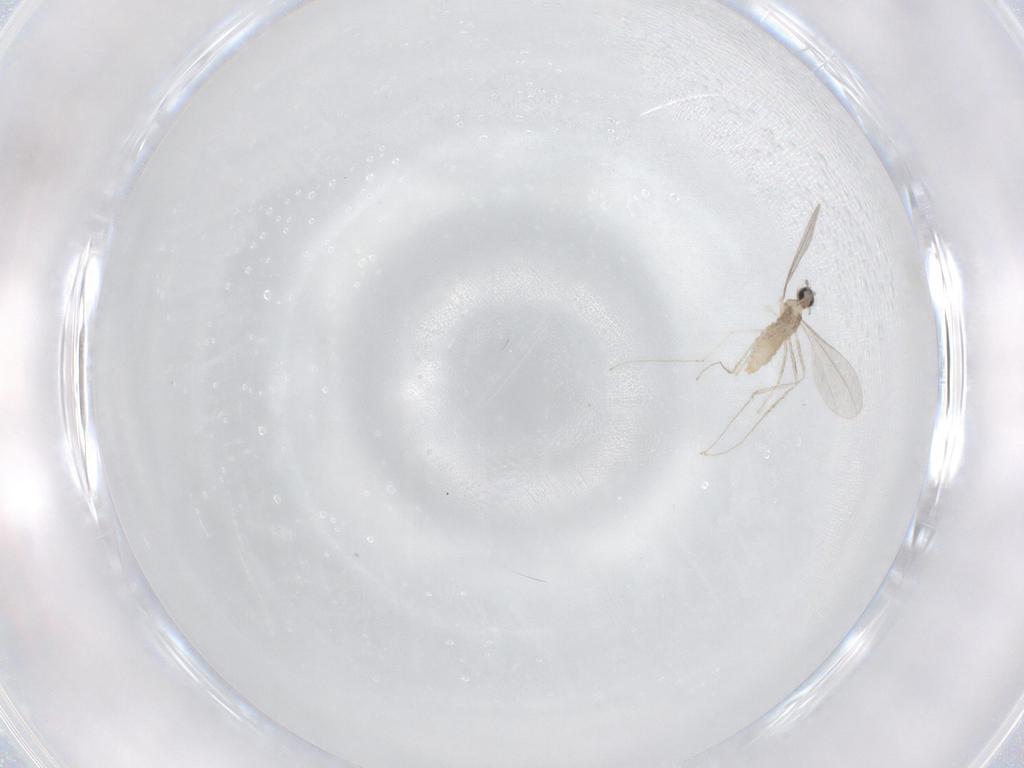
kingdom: Animalia
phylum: Arthropoda
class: Insecta
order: Diptera
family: Cecidomyiidae
